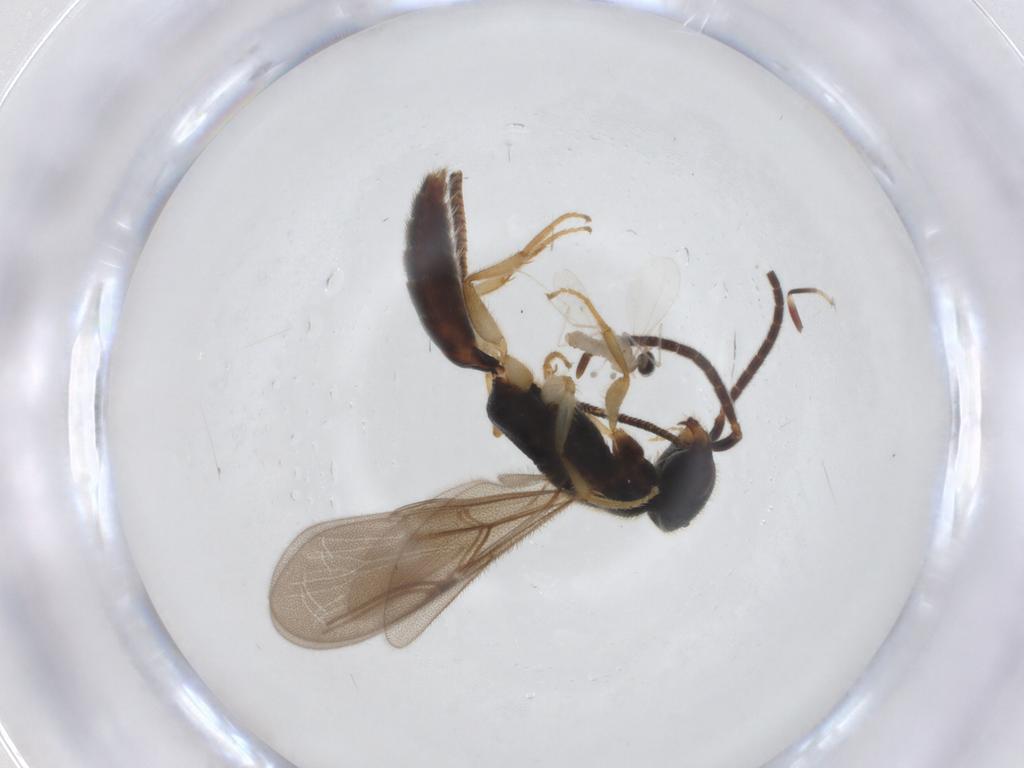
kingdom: Animalia
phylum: Arthropoda
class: Insecta
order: Diptera
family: Cecidomyiidae
